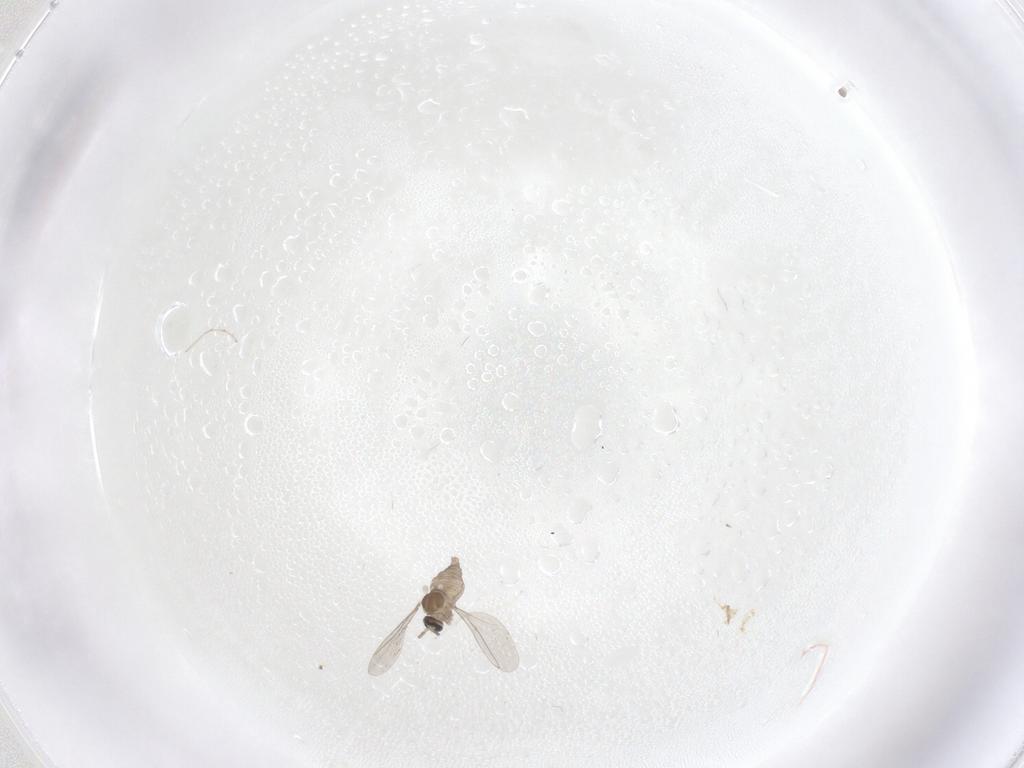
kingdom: Animalia
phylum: Arthropoda
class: Insecta
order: Diptera
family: Cecidomyiidae
